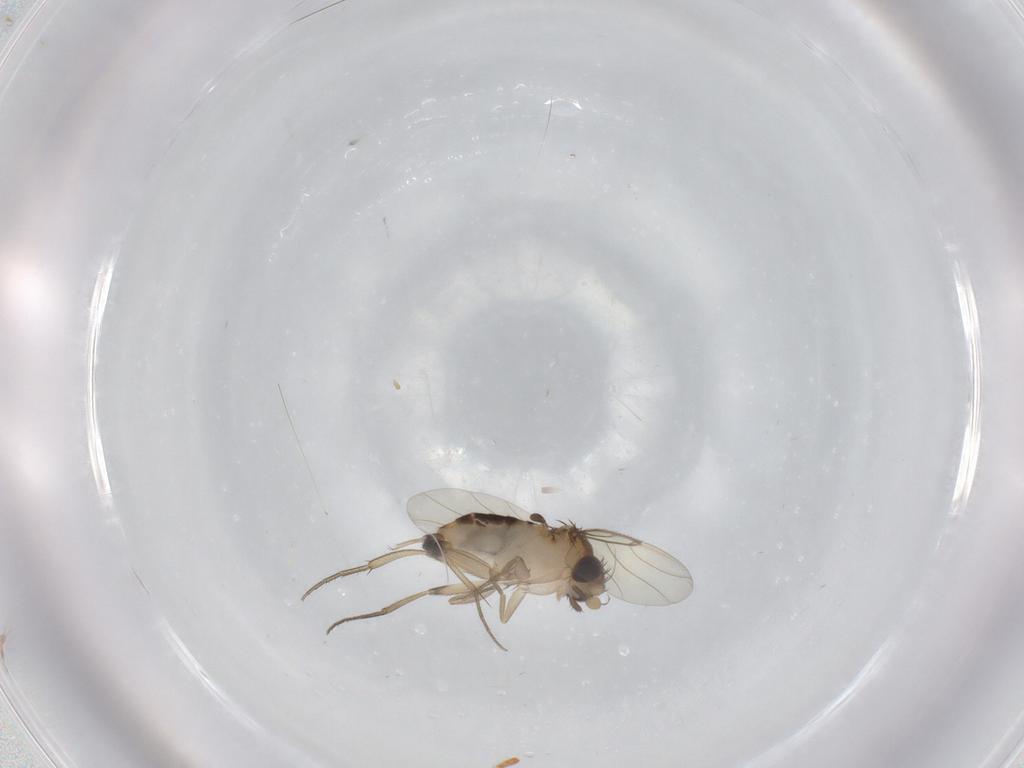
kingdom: Animalia
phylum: Arthropoda
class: Insecta
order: Diptera
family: Phoridae
